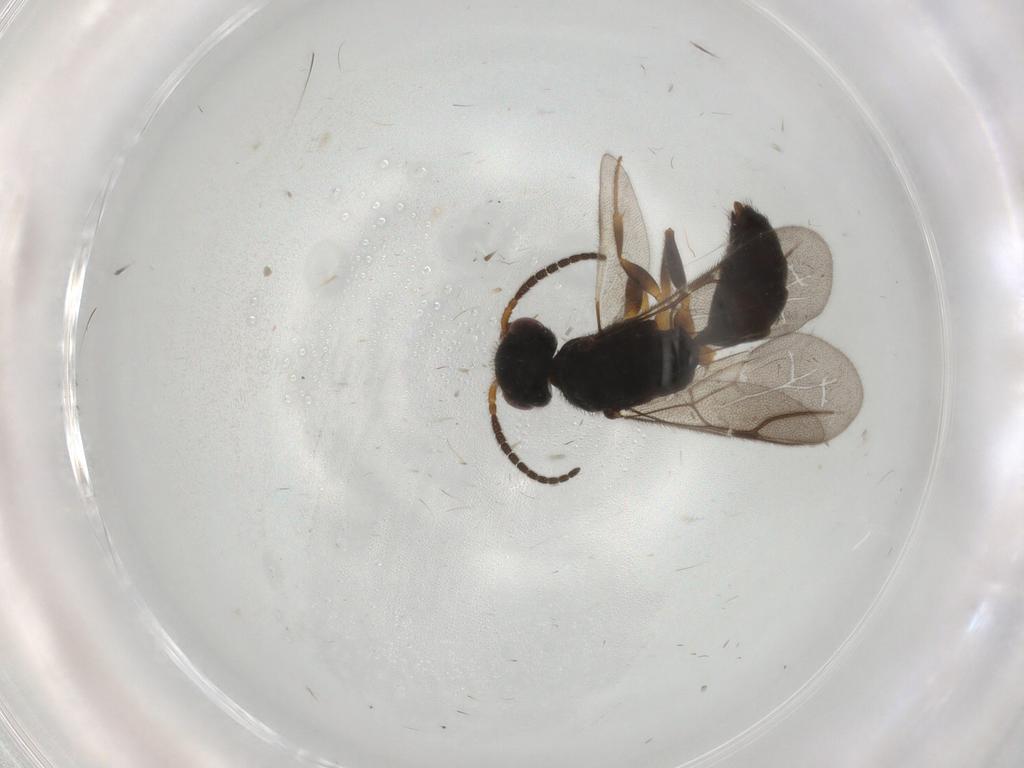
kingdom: Animalia
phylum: Arthropoda
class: Insecta
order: Hymenoptera
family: Bethylidae
